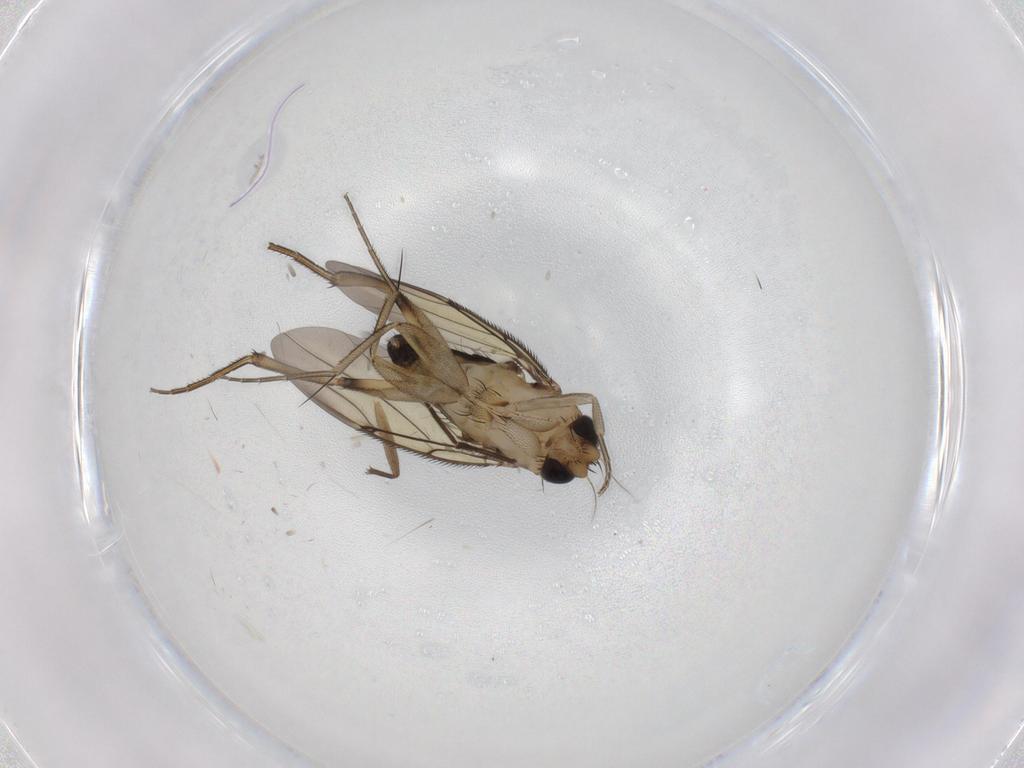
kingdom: Animalia
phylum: Arthropoda
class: Insecta
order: Diptera
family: Sciaridae
